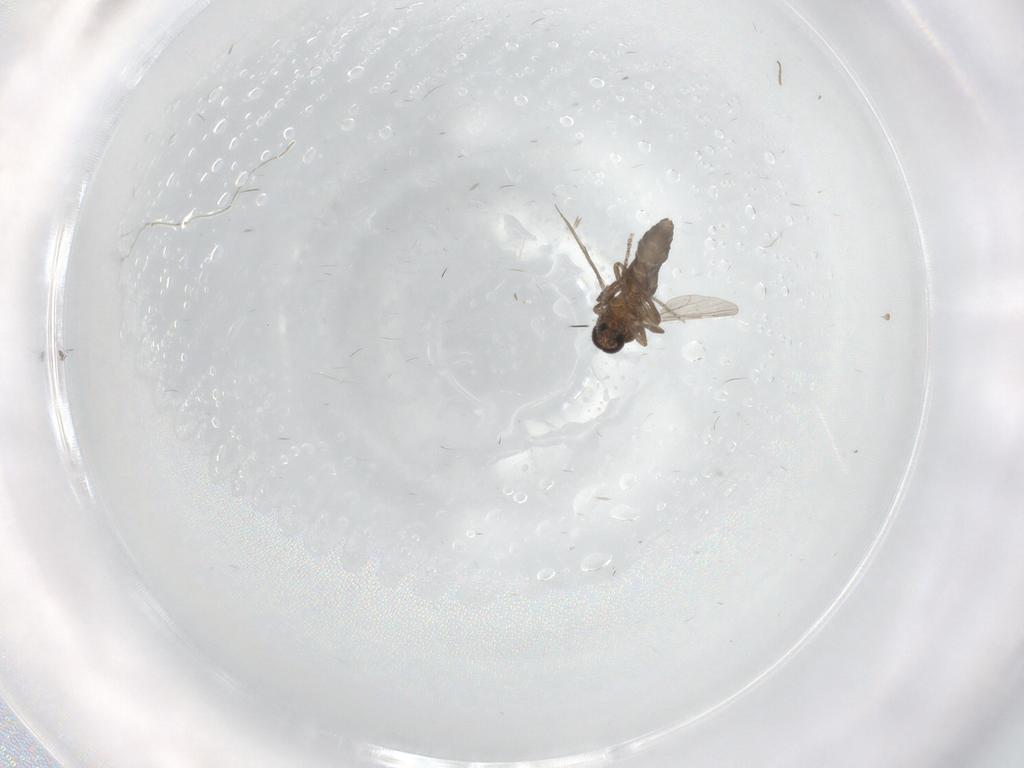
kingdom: Animalia
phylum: Arthropoda
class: Insecta
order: Diptera
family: Ceratopogonidae
